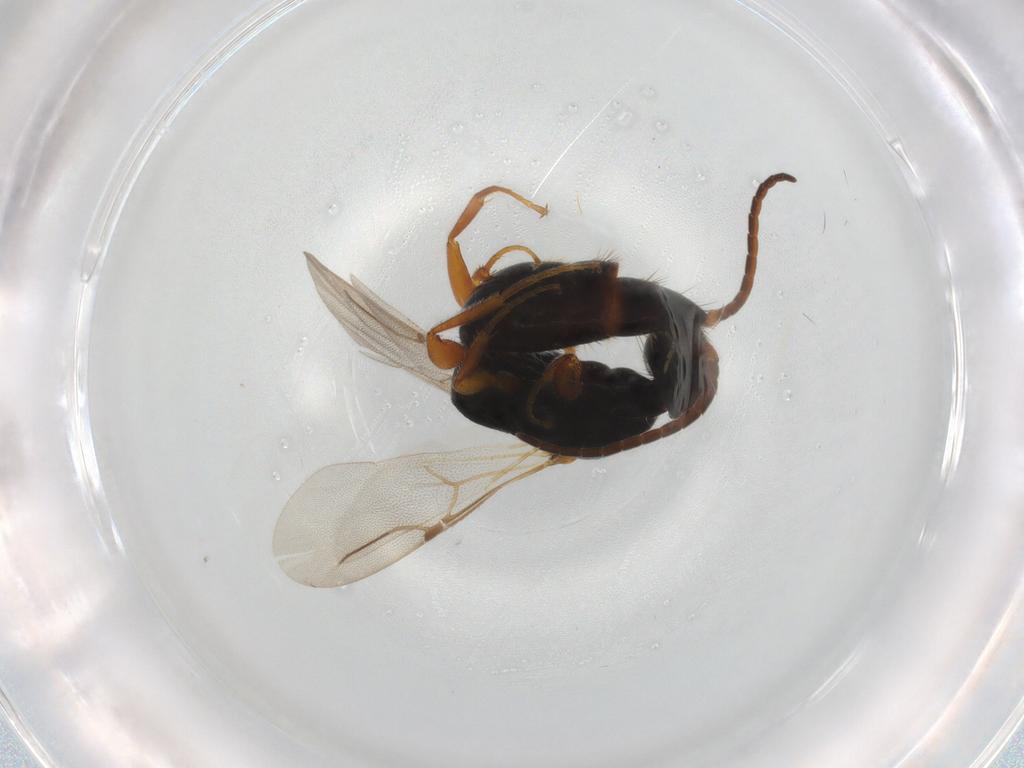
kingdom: Animalia
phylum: Arthropoda
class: Insecta
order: Hymenoptera
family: Bethylidae
